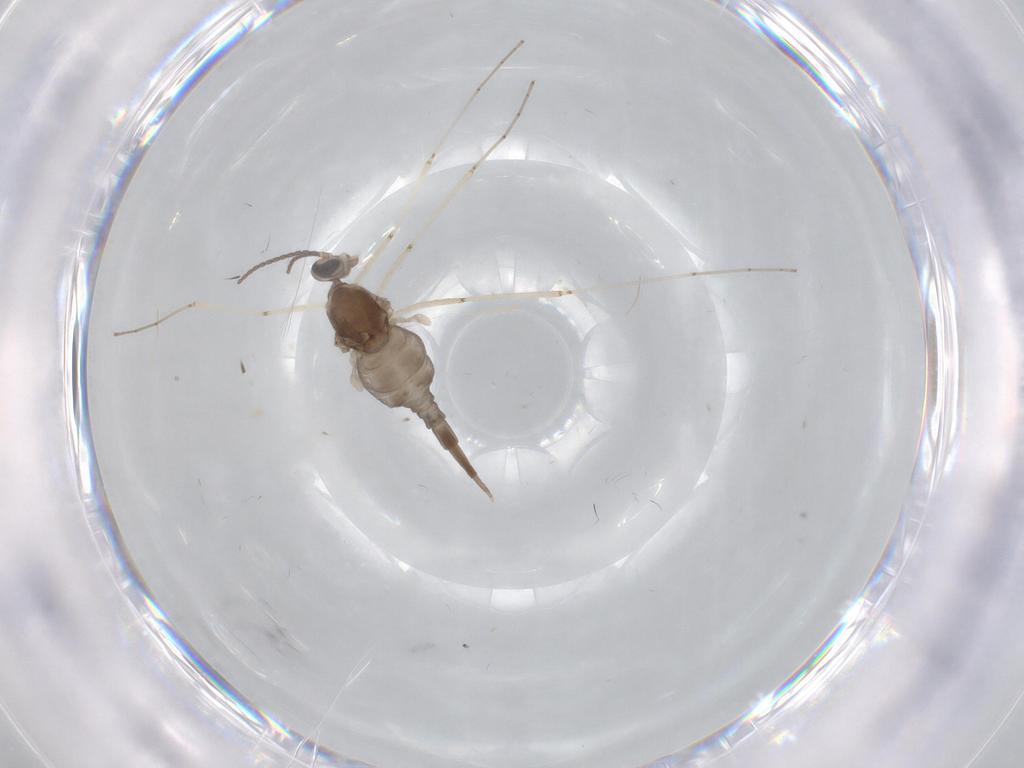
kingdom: Animalia
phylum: Arthropoda
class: Insecta
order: Diptera
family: Cecidomyiidae
